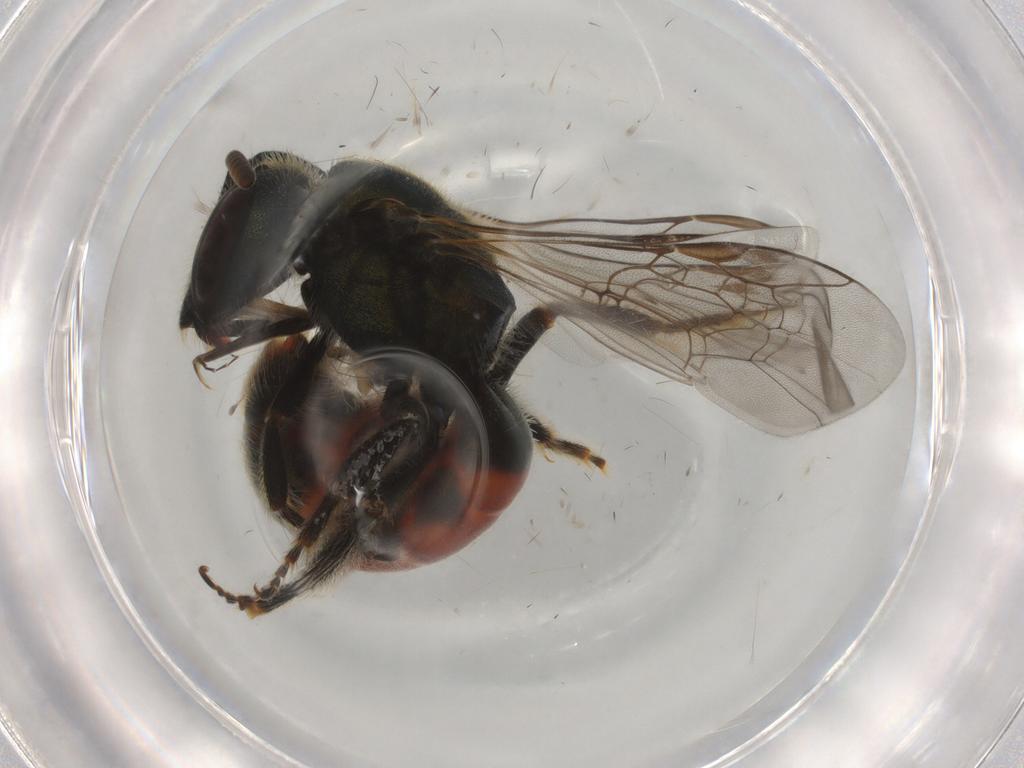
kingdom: Animalia
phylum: Arthropoda
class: Insecta
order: Hymenoptera
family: Halictidae
